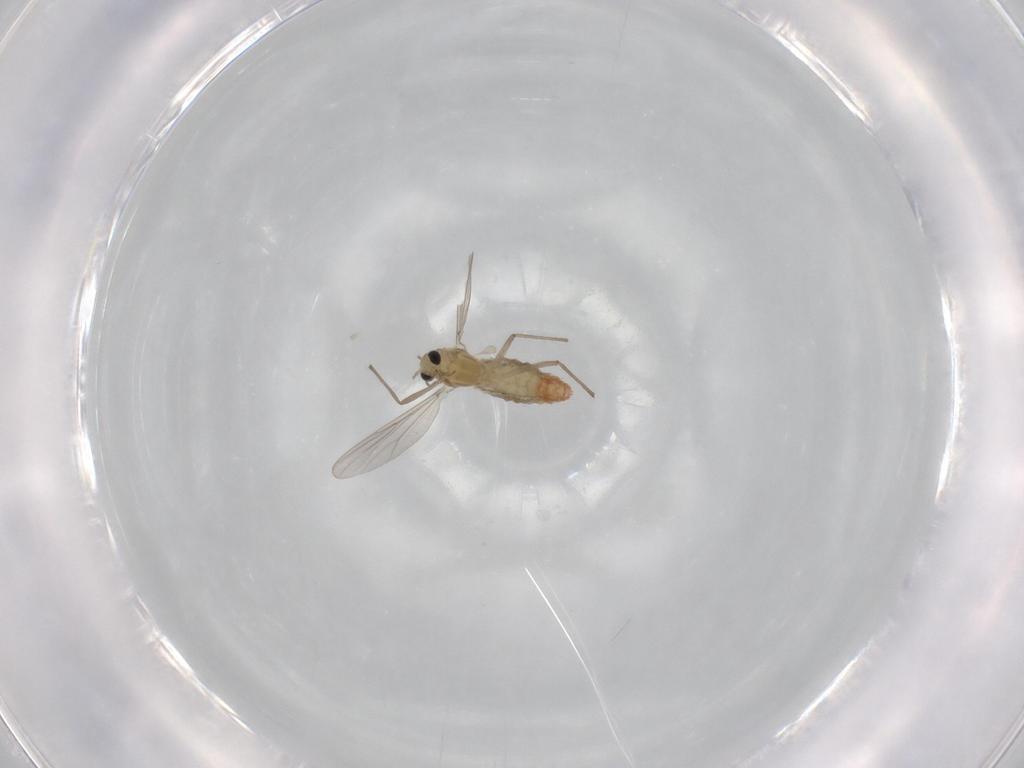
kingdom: Animalia
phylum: Arthropoda
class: Insecta
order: Diptera
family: Chironomidae
